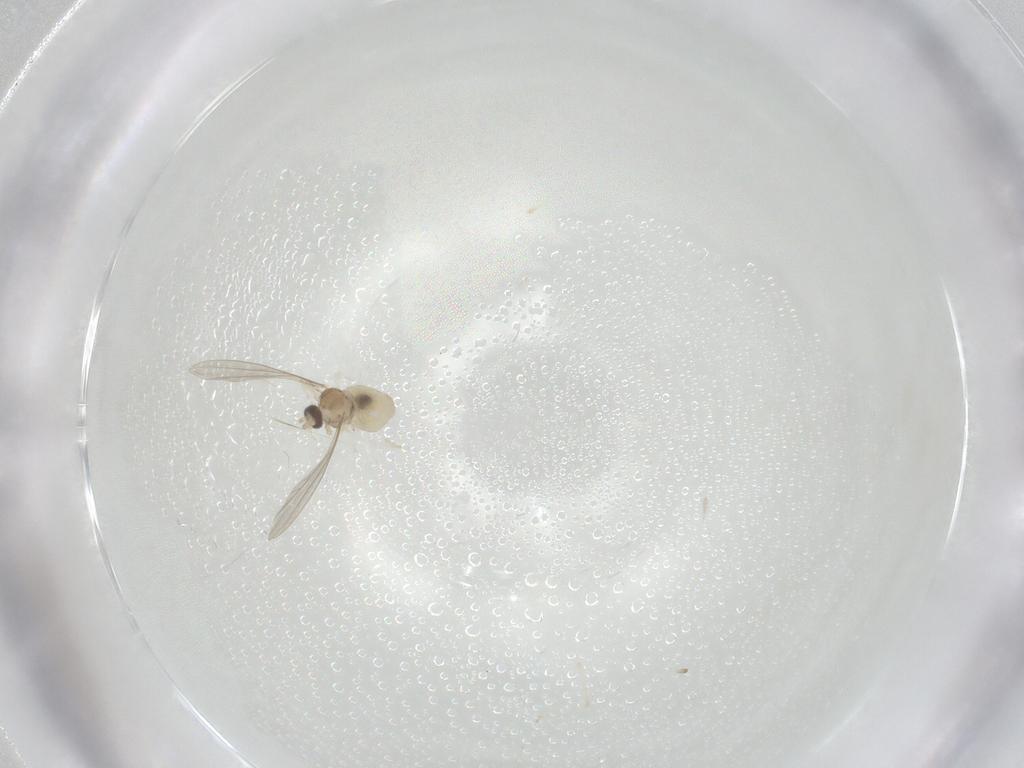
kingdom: Animalia
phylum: Arthropoda
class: Insecta
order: Diptera
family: Cecidomyiidae
